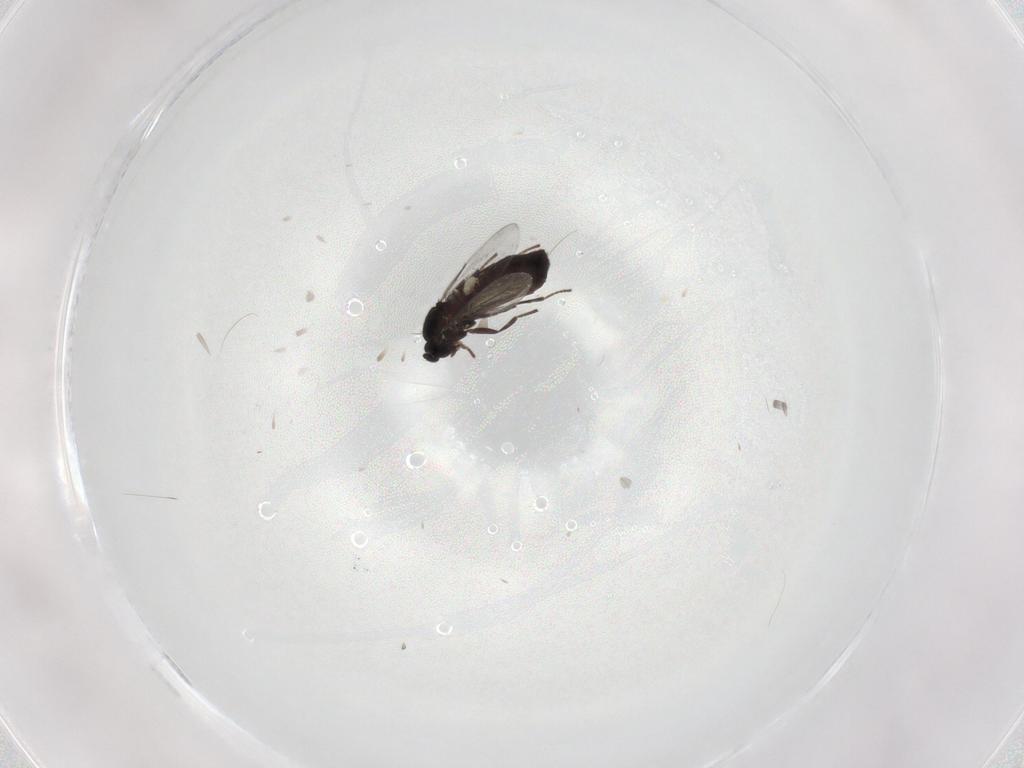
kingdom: Animalia
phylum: Arthropoda
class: Insecta
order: Diptera
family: Scatopsidae
